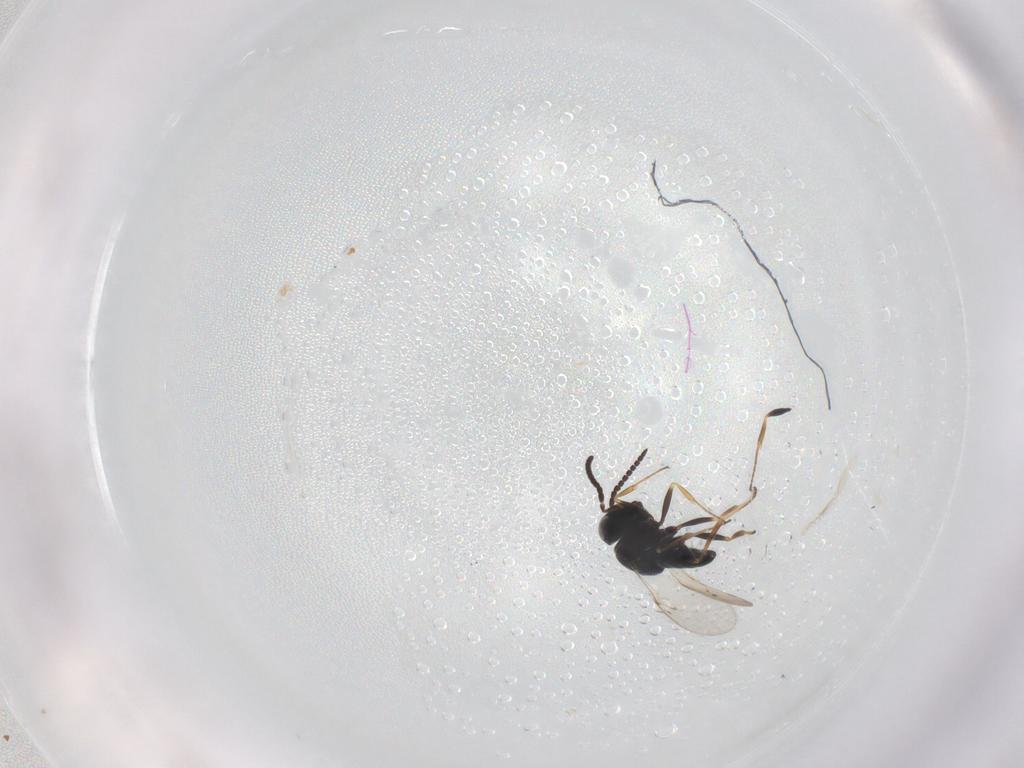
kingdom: Animalia
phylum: Arthropoda
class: Insecta
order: Hymenoptera
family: Scelionidae
